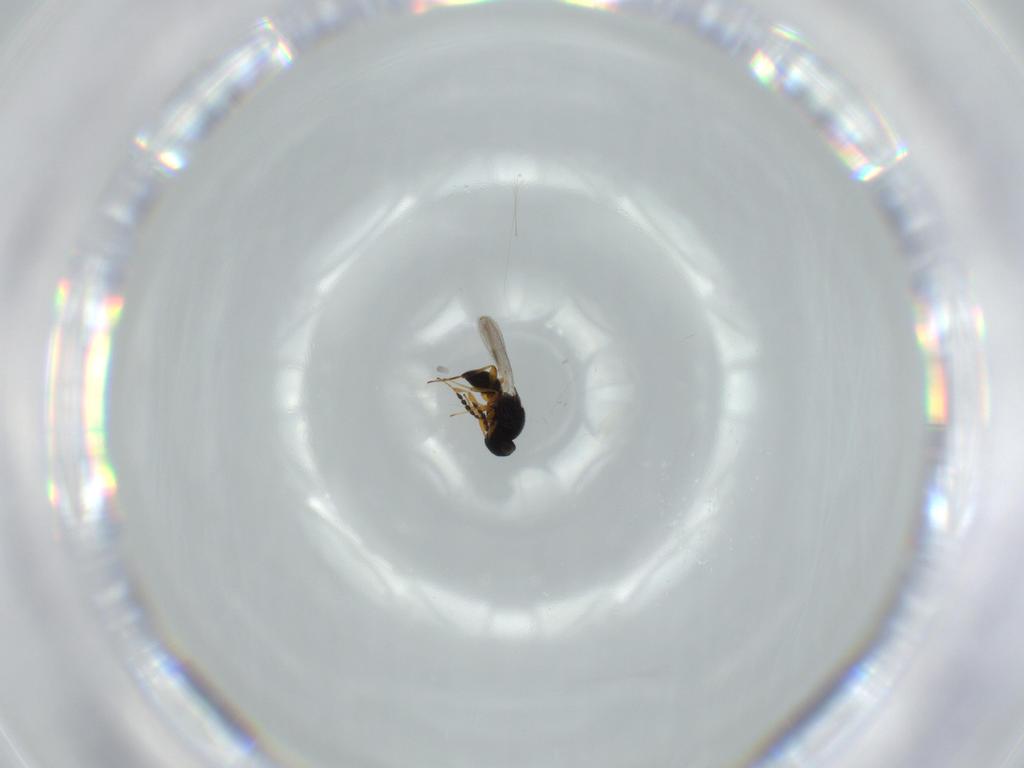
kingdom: Animalia
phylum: Arthropoda
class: Insecta
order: Hymenoptera
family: Platygastridae
